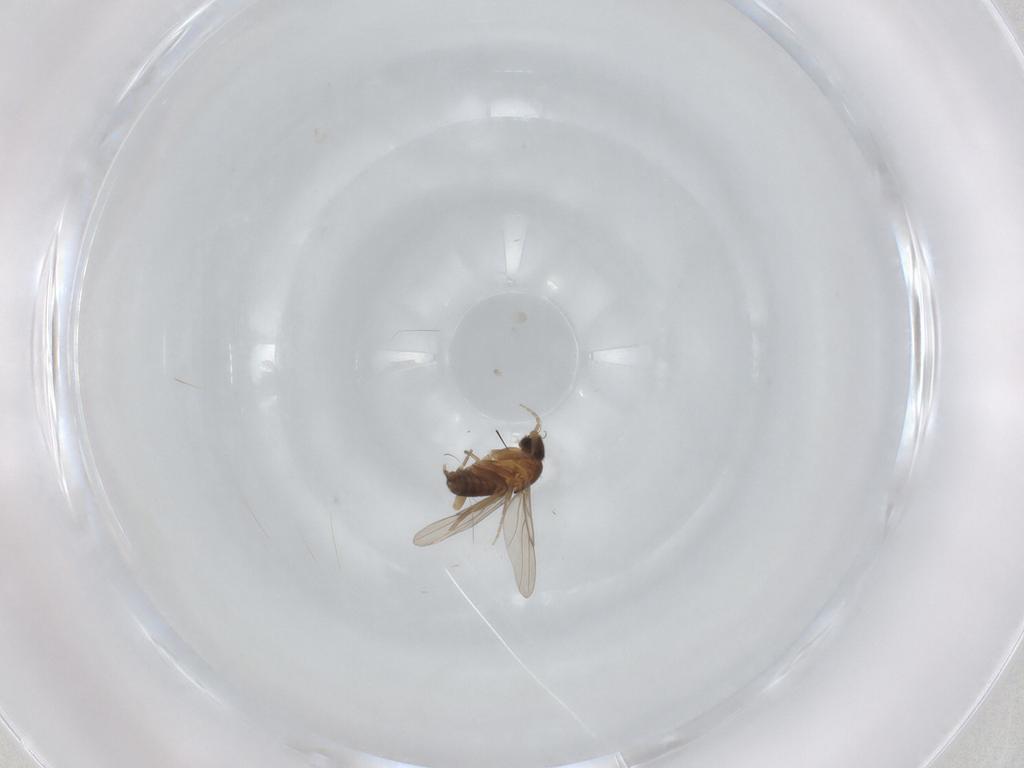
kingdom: Animalia
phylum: Arthropoda
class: Insecta
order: Diptera
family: Phoridae
